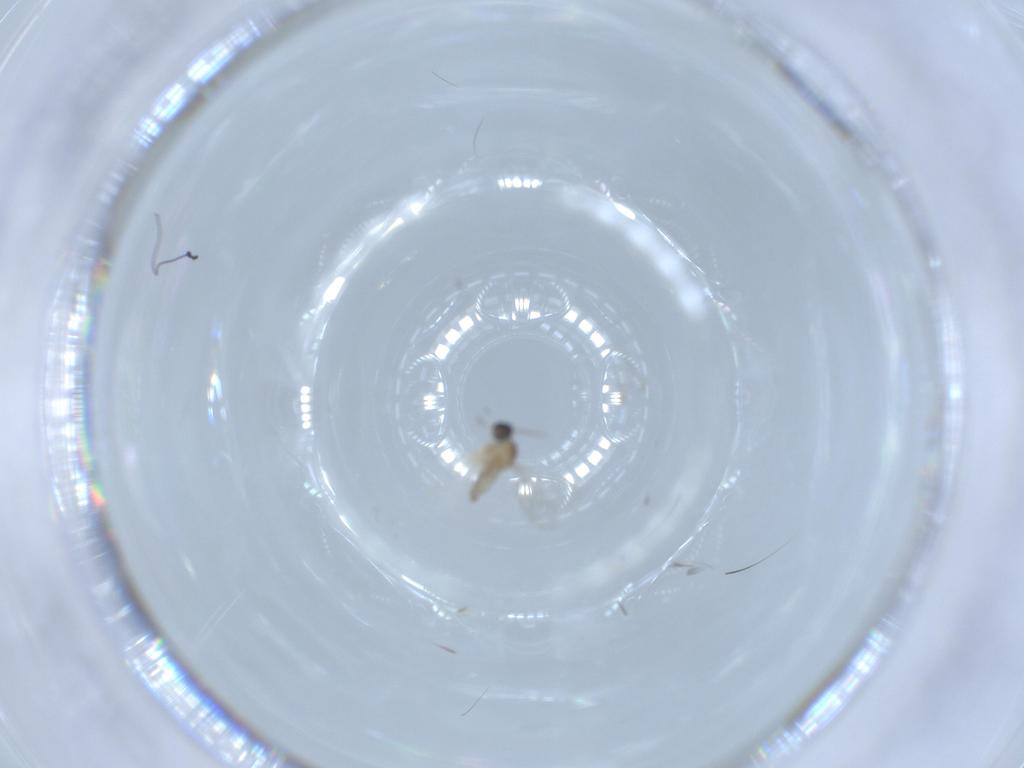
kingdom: Animalia
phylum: Arthropoda
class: Insecta
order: Diptera
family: Cecidomyiidae
